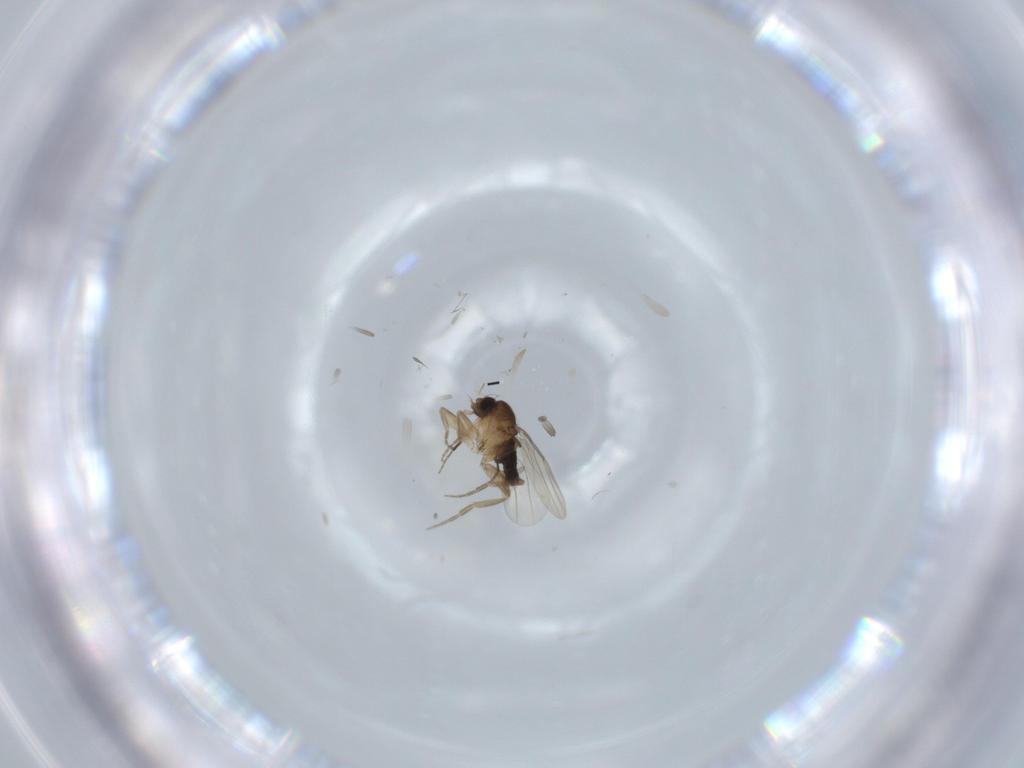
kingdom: Animalia
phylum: Arthropoda
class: Insecta
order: Diptera
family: Phoridae
